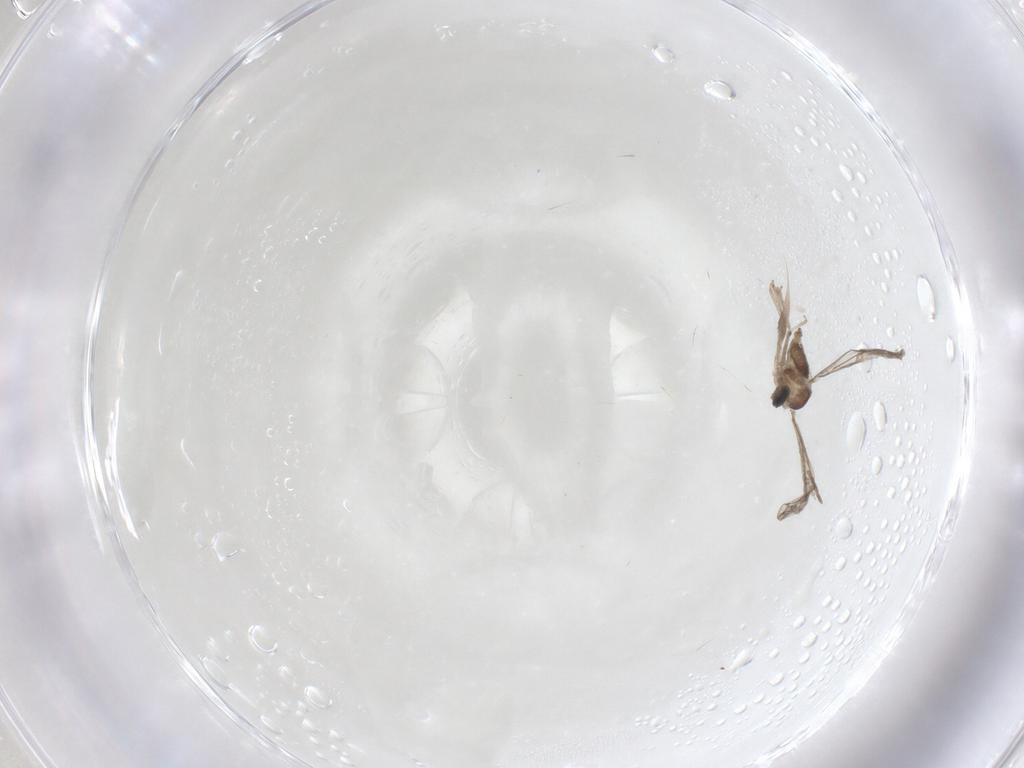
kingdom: Animalia
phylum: Arthropoda
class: Insecta
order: Diptera
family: Cecidomyiidae
